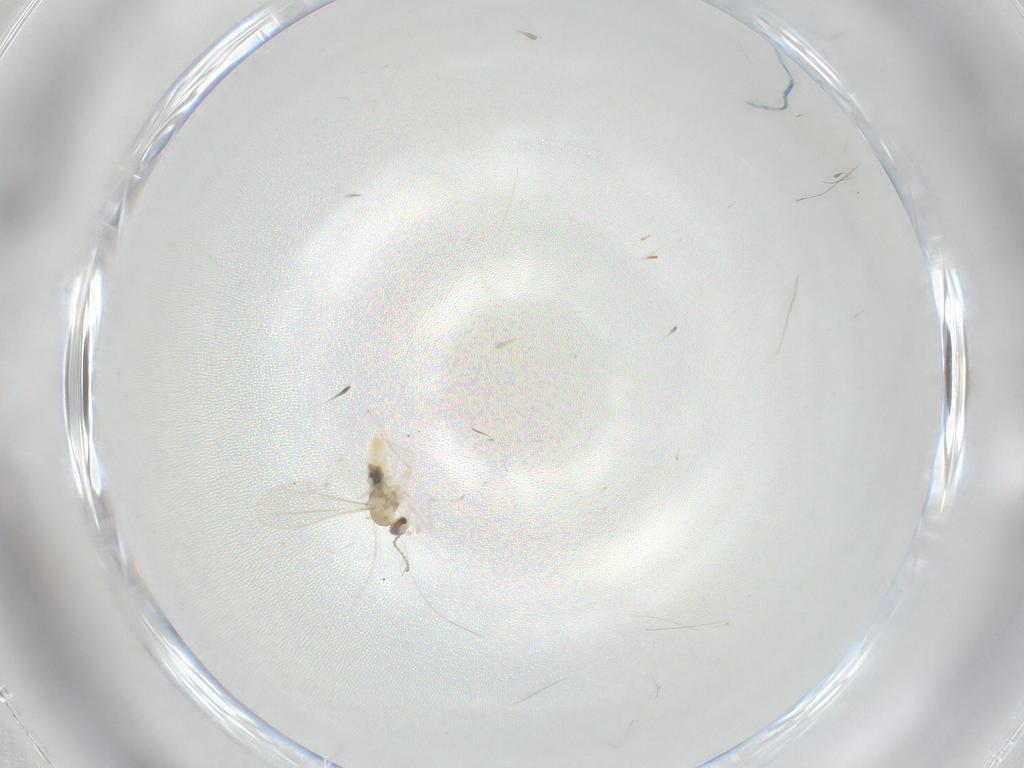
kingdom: Animalia
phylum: Arthropoda
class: Insecta
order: Diptera
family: Cecidomyiidae
